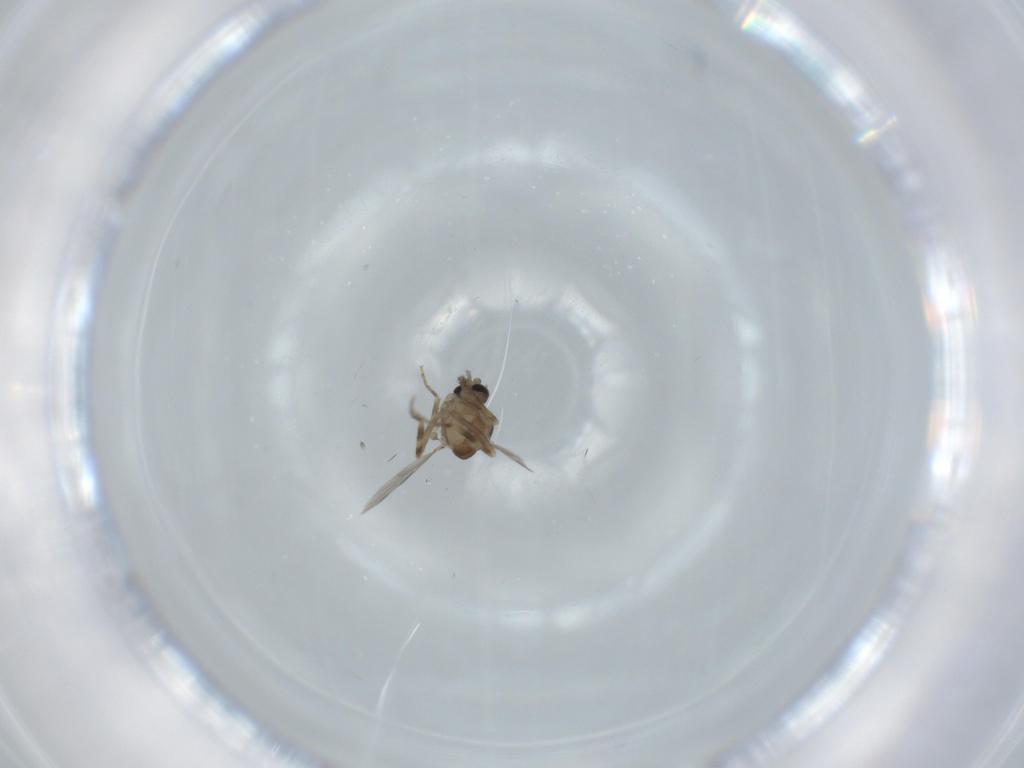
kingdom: Animalia
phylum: Arthropoda
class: Insecta
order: Diptera
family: Ceratopogonidae
